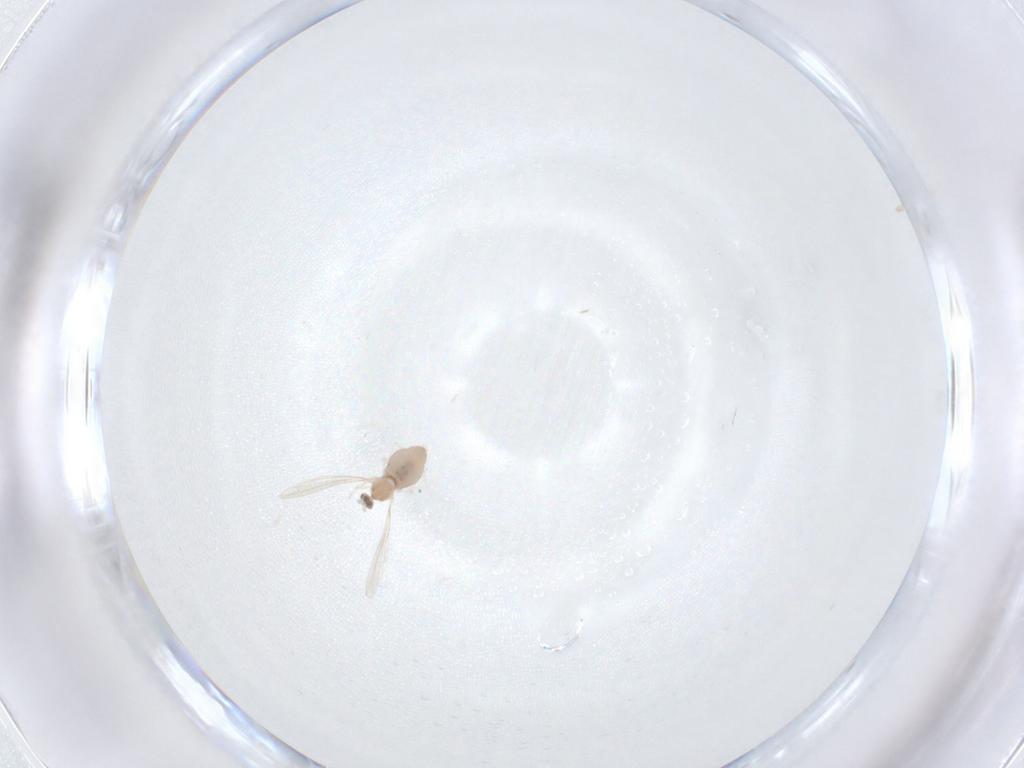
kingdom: Animalia
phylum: Arthropoda
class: Insecta
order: Diptera
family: Cecidomyiidae
